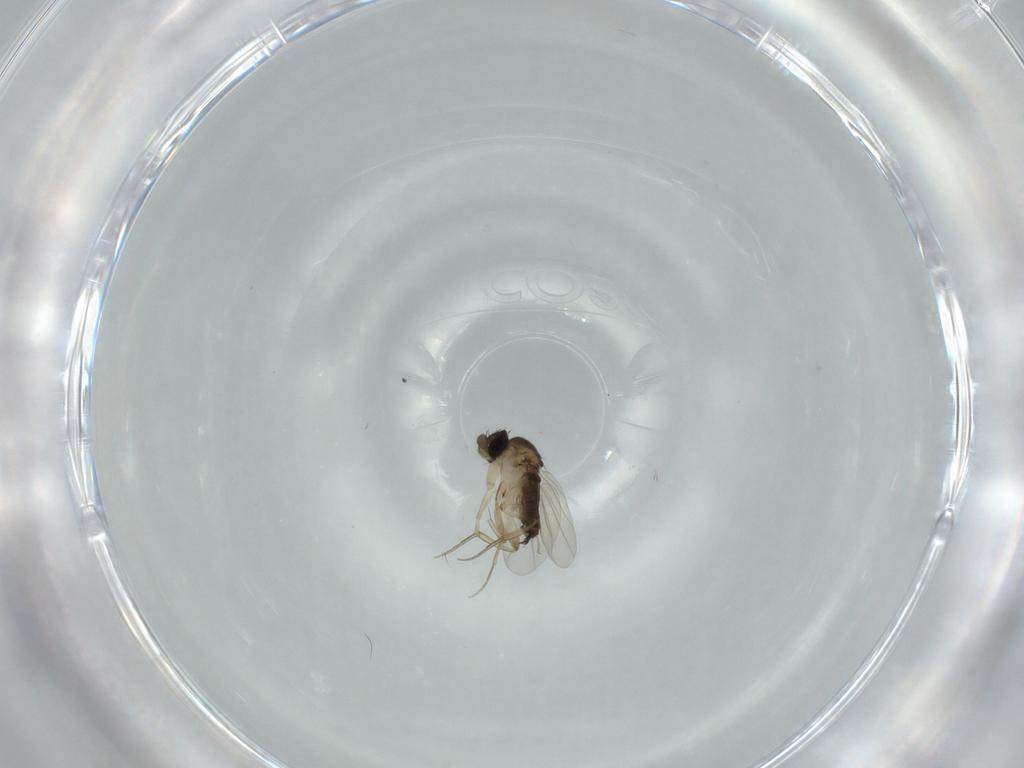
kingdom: Animalia
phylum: Arthropoda
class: Insecta
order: Diptera
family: Phoridae
